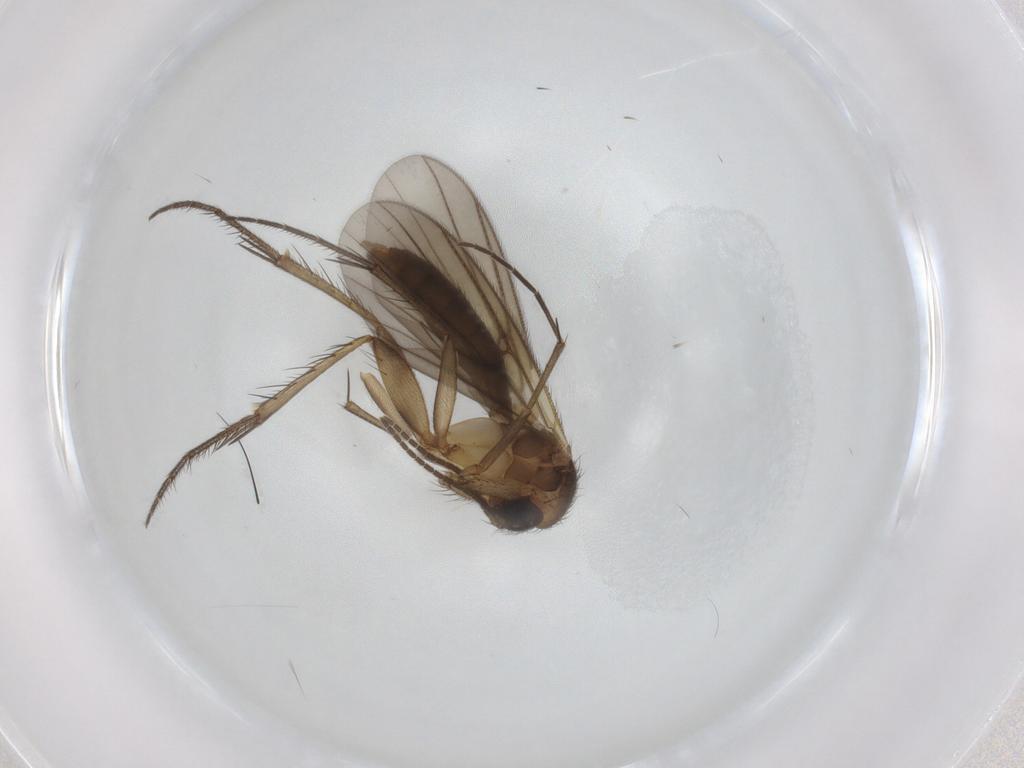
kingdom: Animalia
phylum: Arthropoda
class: Insecta
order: Diptera
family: Mycetophilidae
